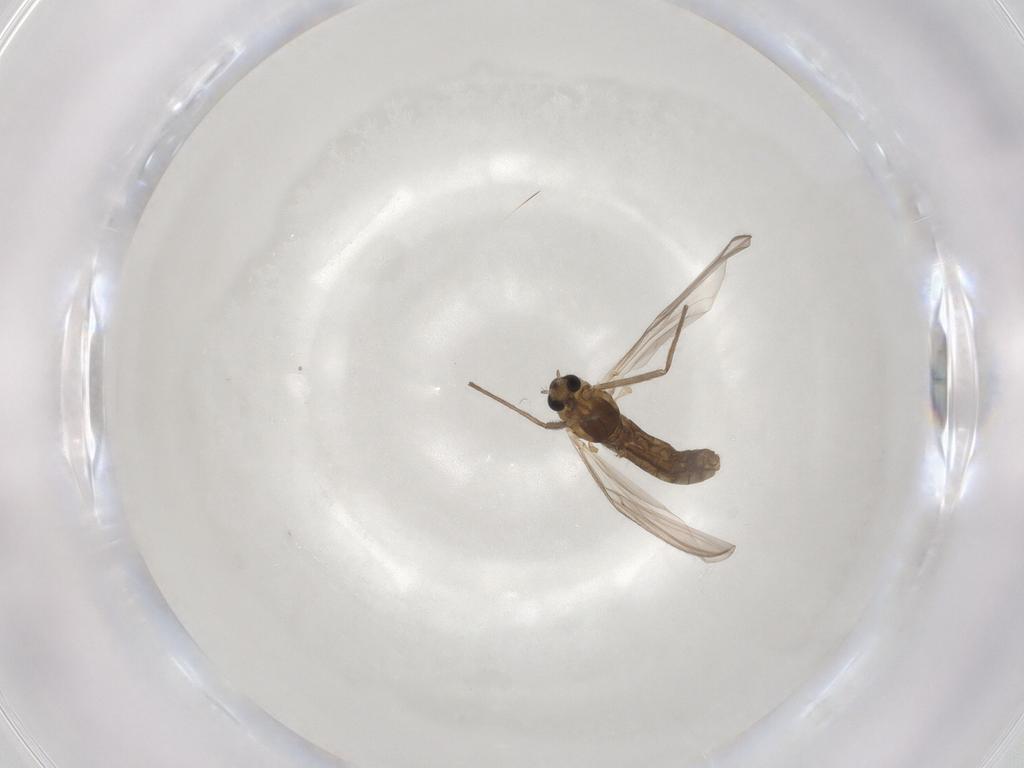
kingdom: Animalia
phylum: Arthropoda
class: Insecta
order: Diptera
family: Chironomidae
